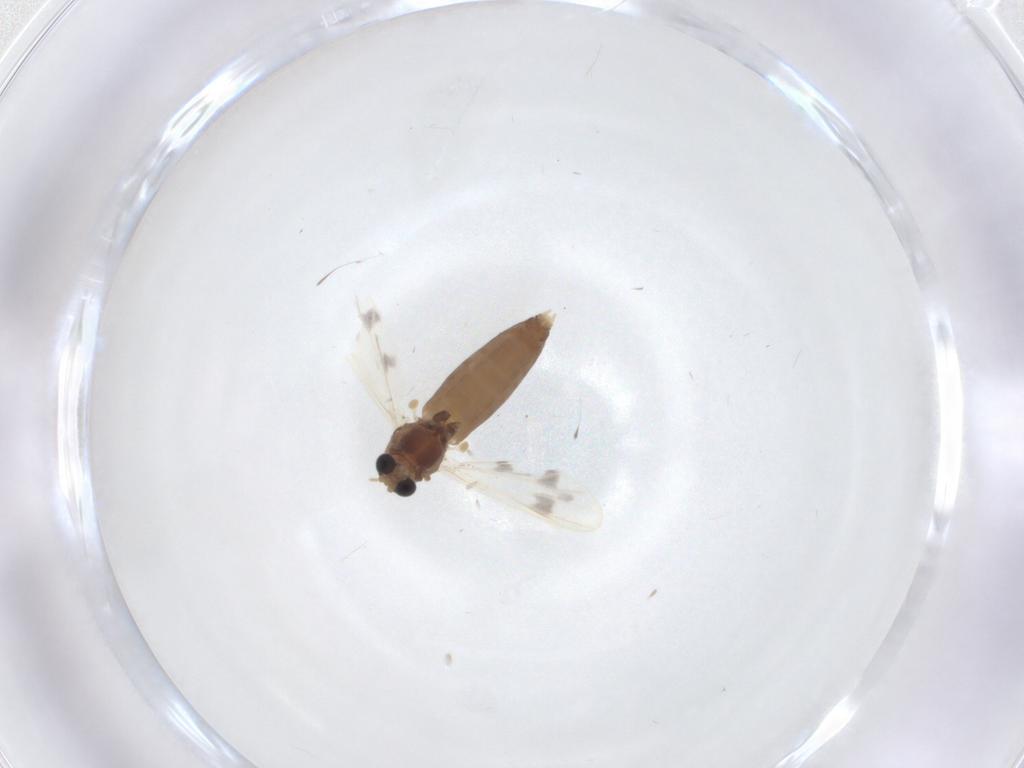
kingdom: Animalia
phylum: Arthropoda
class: Insecta
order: Diptera
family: Chironomidae
